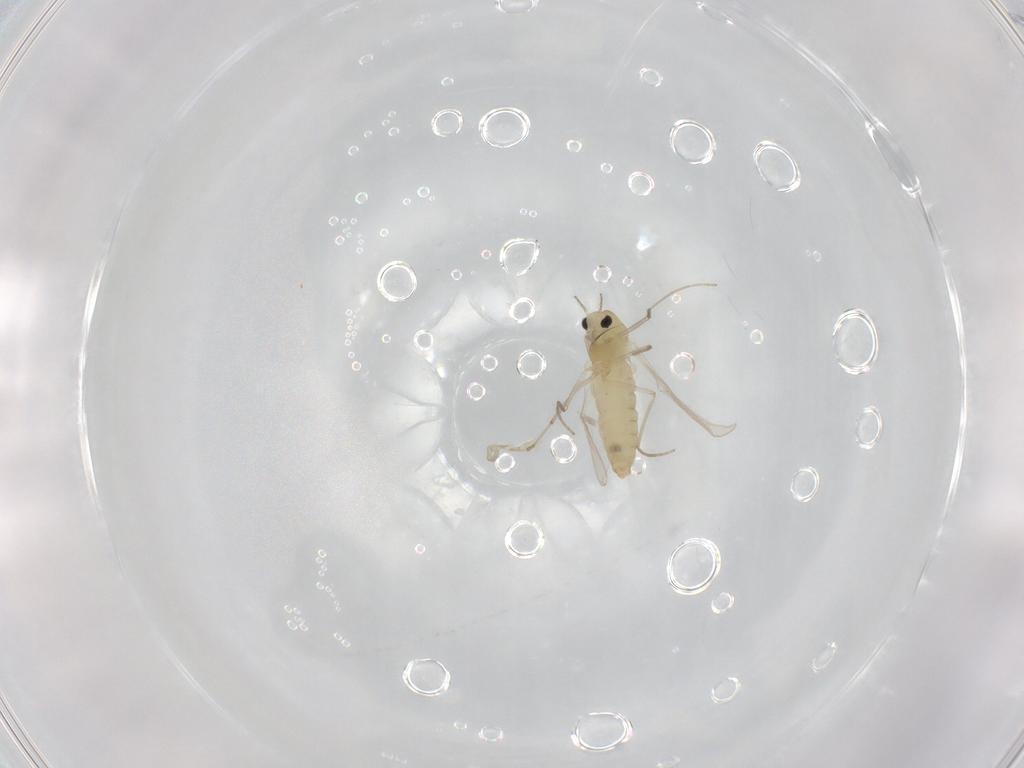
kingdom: Animalia
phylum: Arthropoda
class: Insecta
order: Diptera
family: Chironomidae
